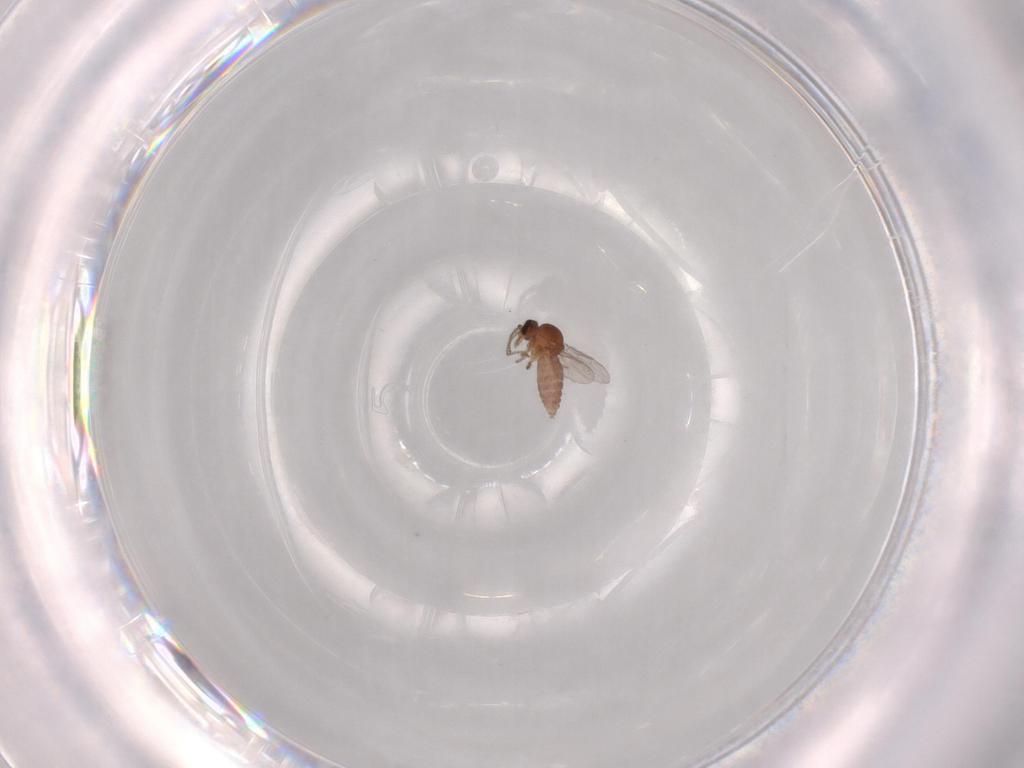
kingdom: Animalia
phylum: Arthropoda
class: Insecta
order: Diptera
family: Ceratopogonidae
